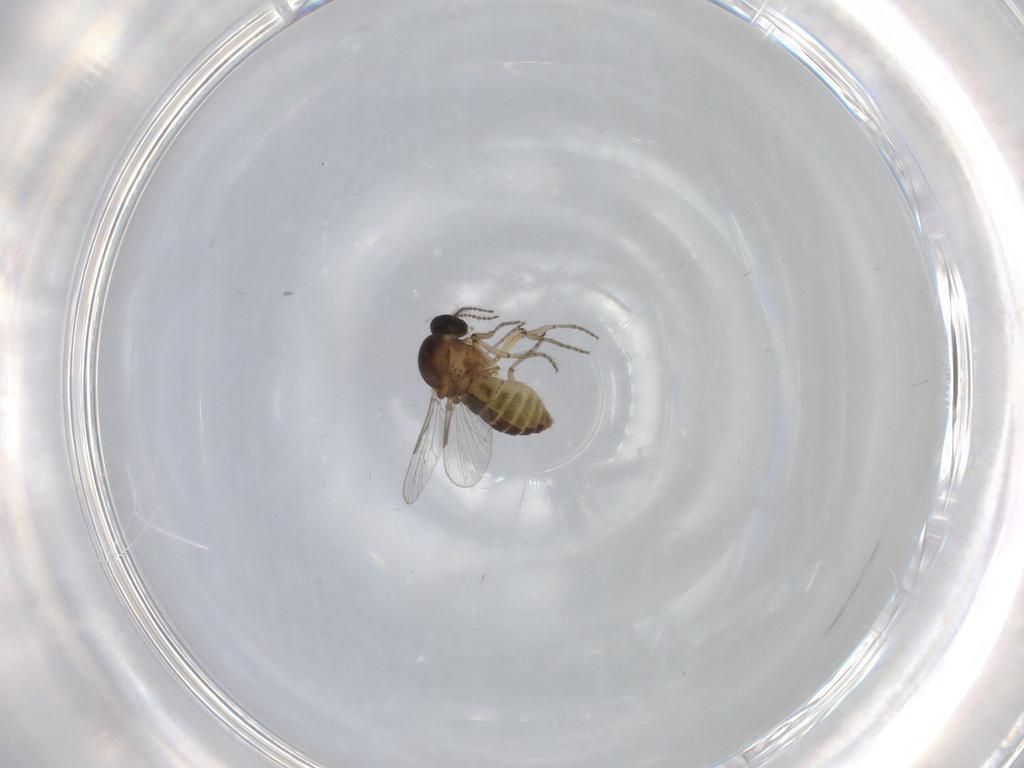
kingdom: Animalia
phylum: Arthropoda
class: Insecta
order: Diptera
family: Ceratopogonidae
